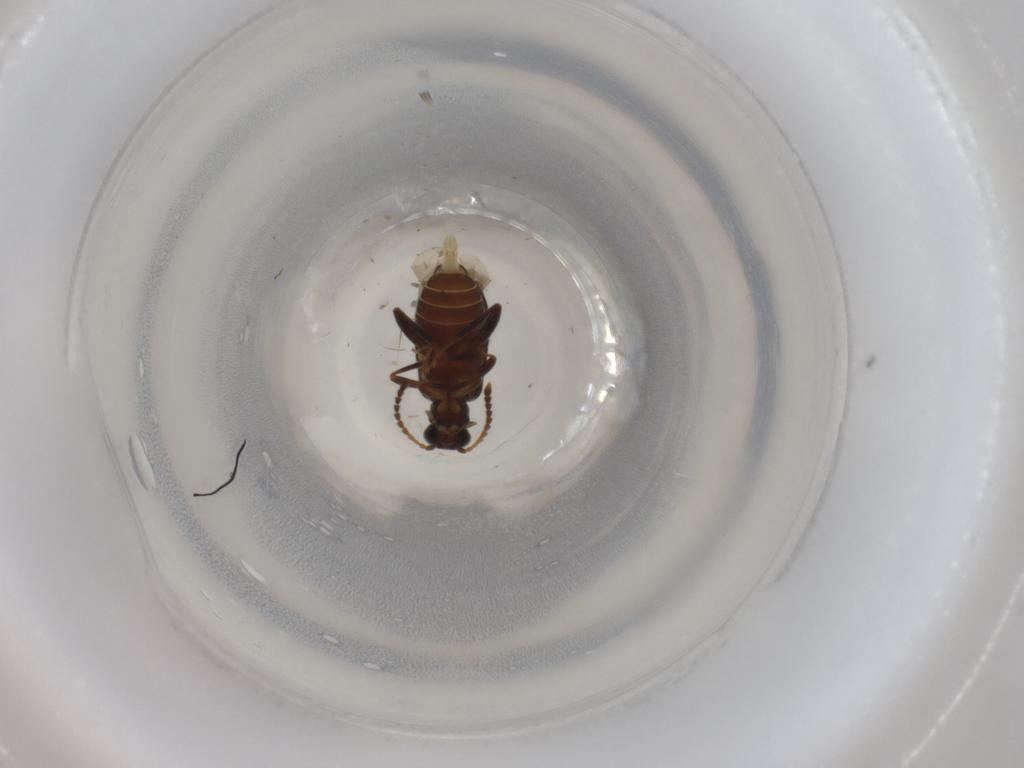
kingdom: Animalia
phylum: Arthropoda
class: Insecta
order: Coleoptera
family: Aderidae
